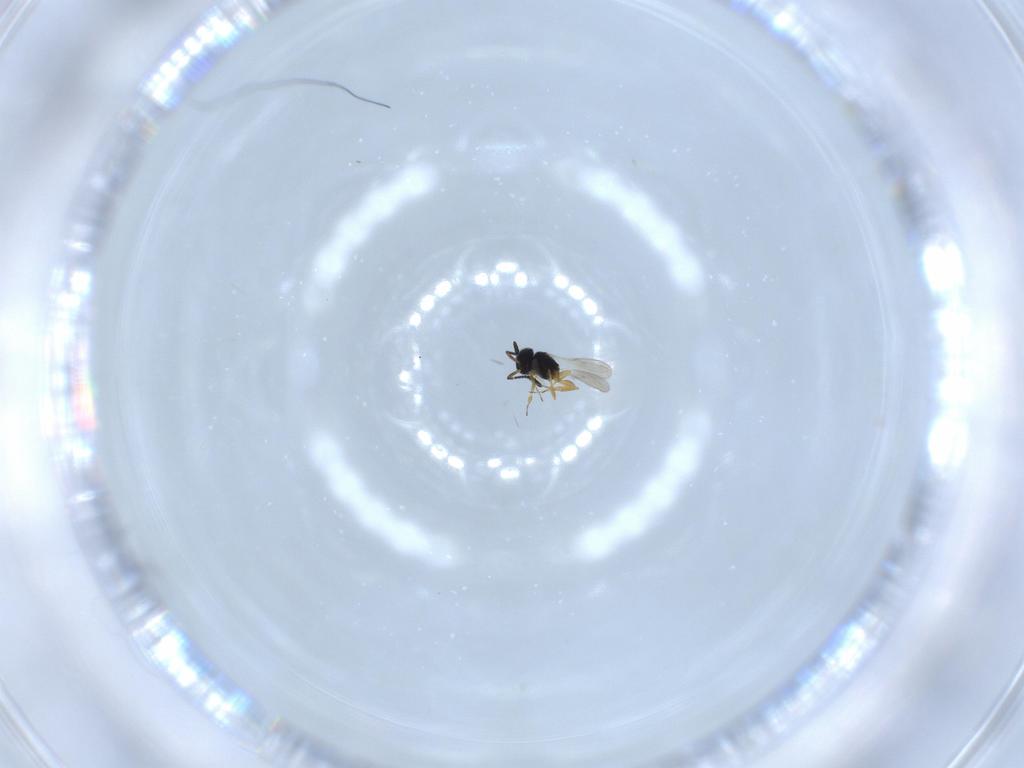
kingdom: Animalia
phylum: Arthropoda
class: Insecta
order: Hymenoptera
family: Scelionidae
